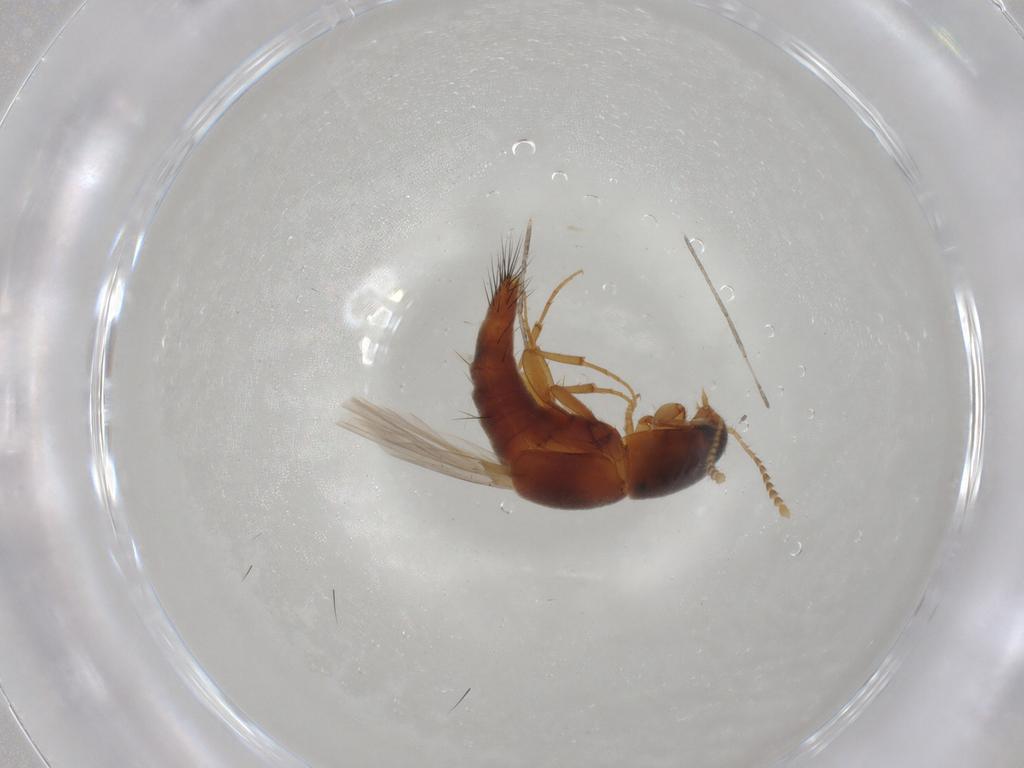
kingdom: Animalia
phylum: Arthropoda
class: Insecta
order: Coleoptera
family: Staphylinidae
